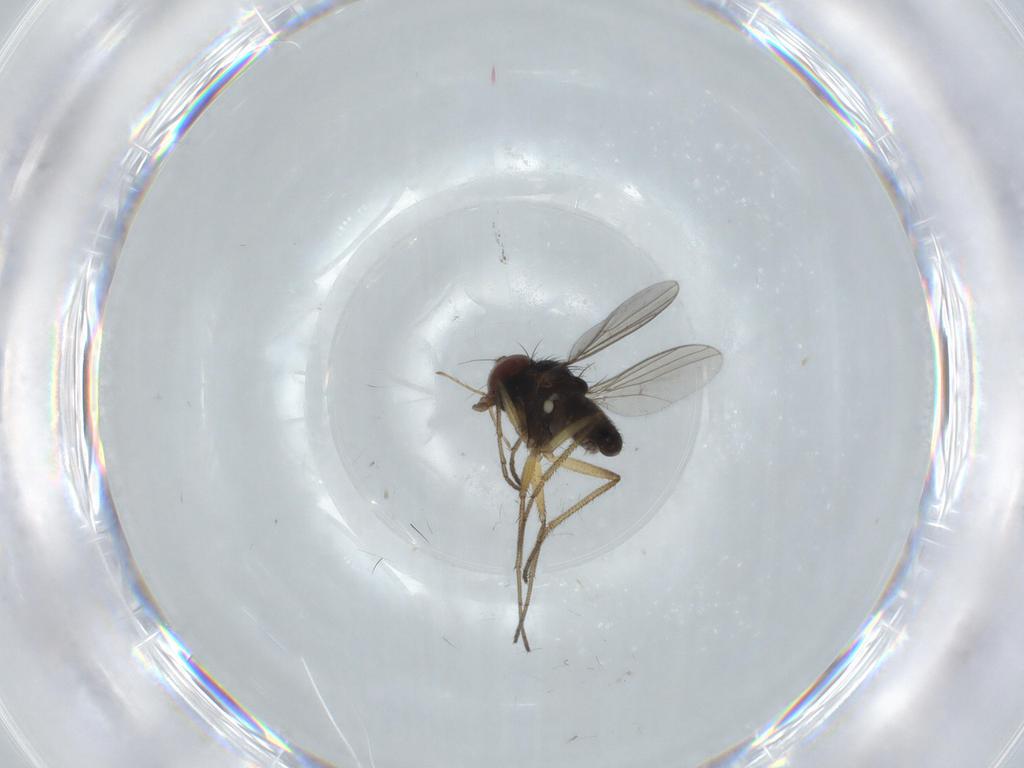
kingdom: Animalia
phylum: Arthropoda
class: Insecta
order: Diptera
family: Dolichopodidae
